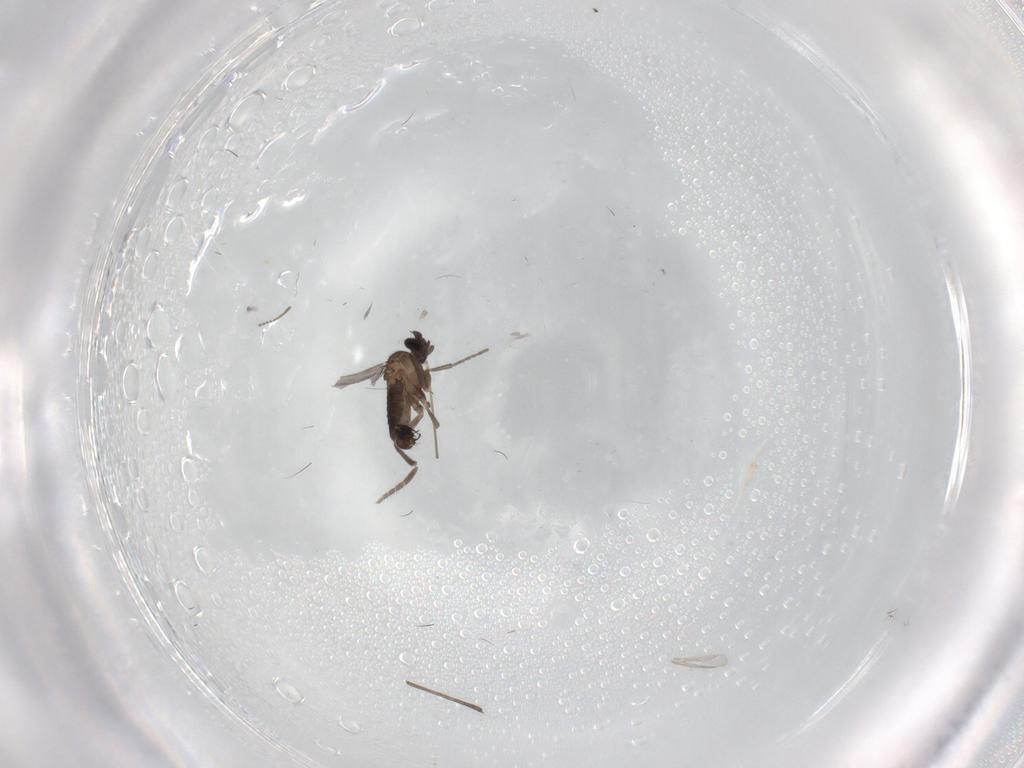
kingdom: Animalia
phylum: Arthropoda
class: Insecta
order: Diptera
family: Phoridae
